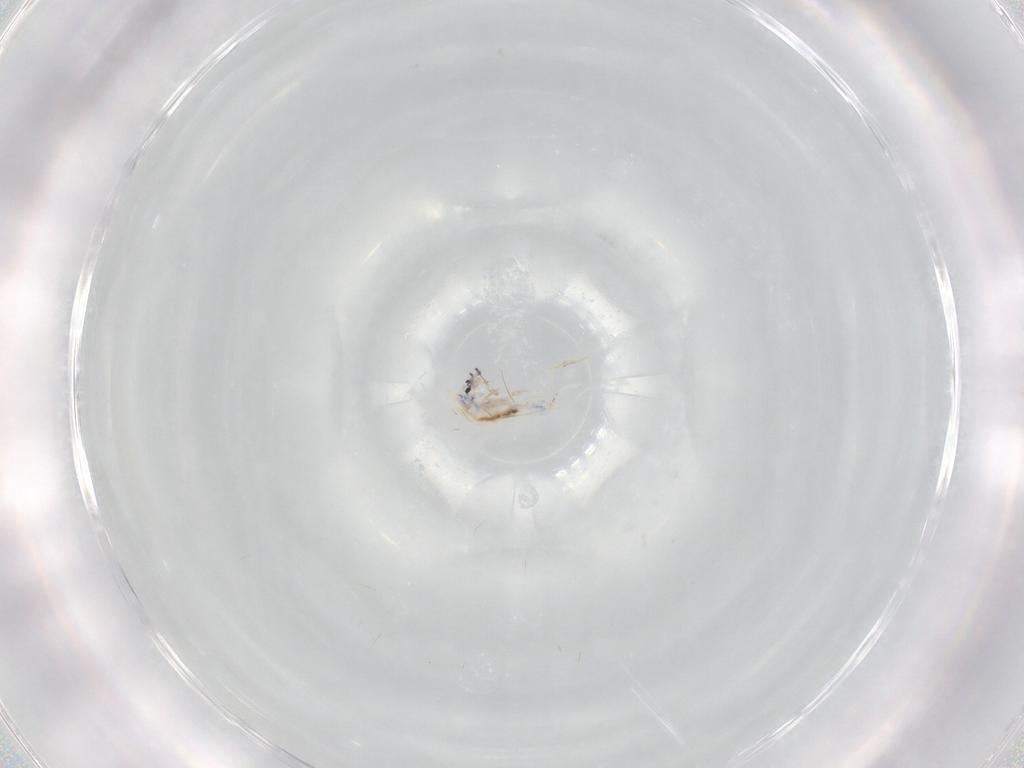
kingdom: Animalia
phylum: Arthropoda
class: Collembola
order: Entomobryomorpha
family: Entomobryidae
